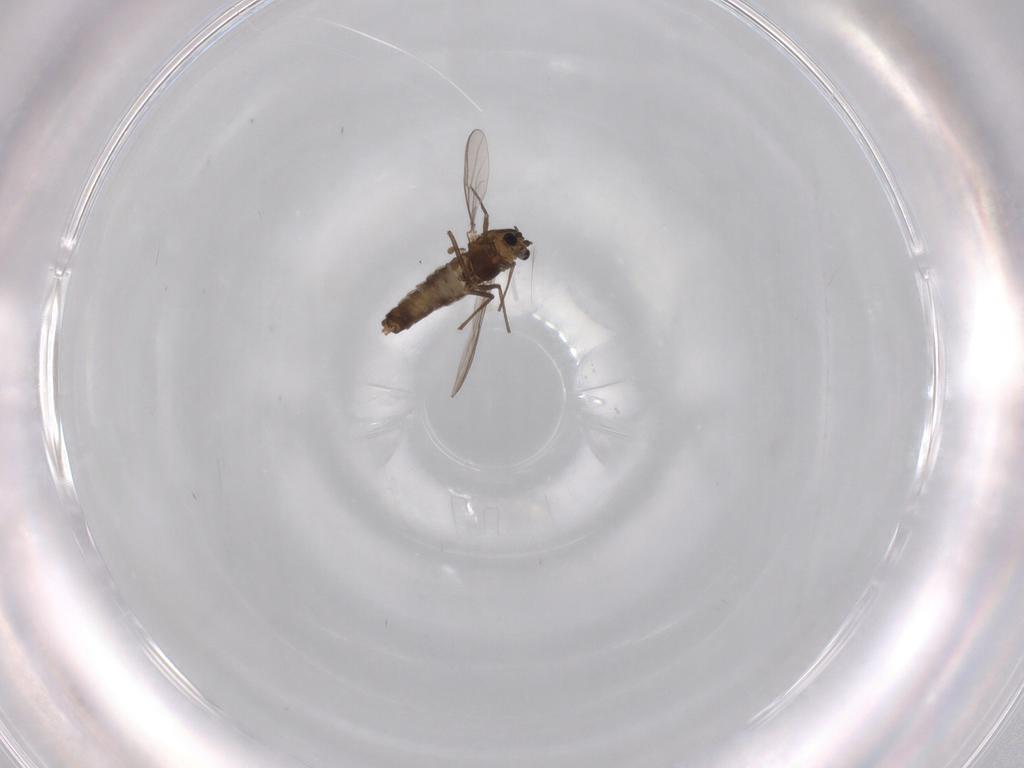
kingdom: Animalia
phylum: Arthropoda
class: Insecta
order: Diptera
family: Chironomidae
